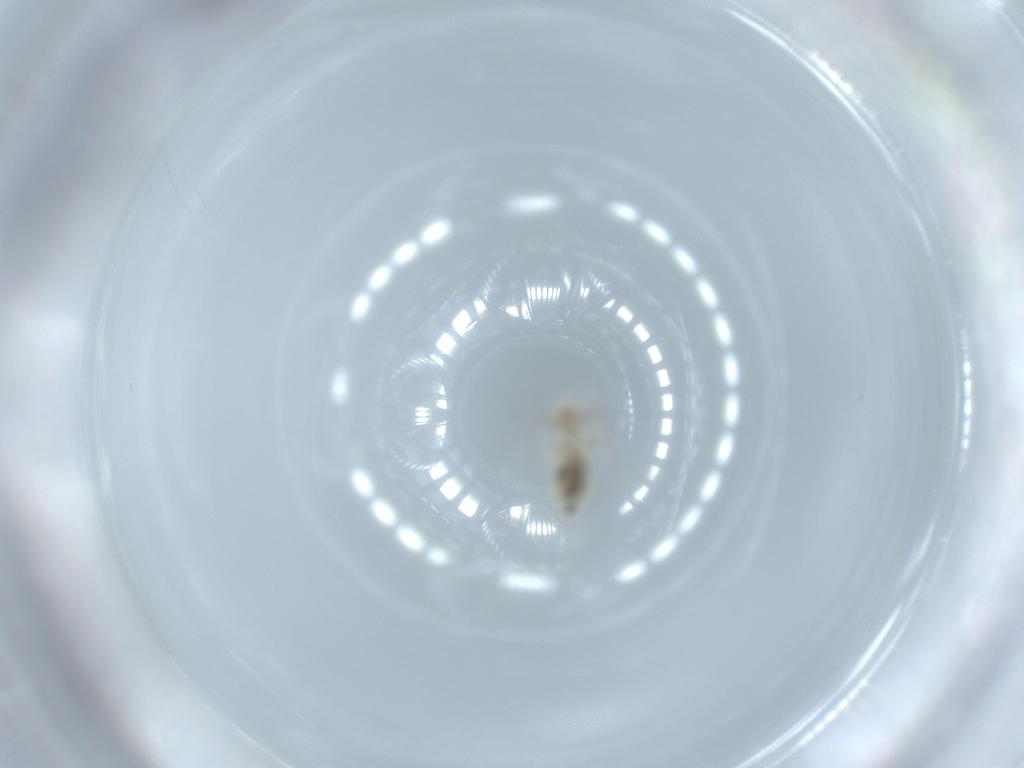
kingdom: Animalia
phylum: Arthropoda
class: Insecta
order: Psocodea
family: Caeciliusidae
